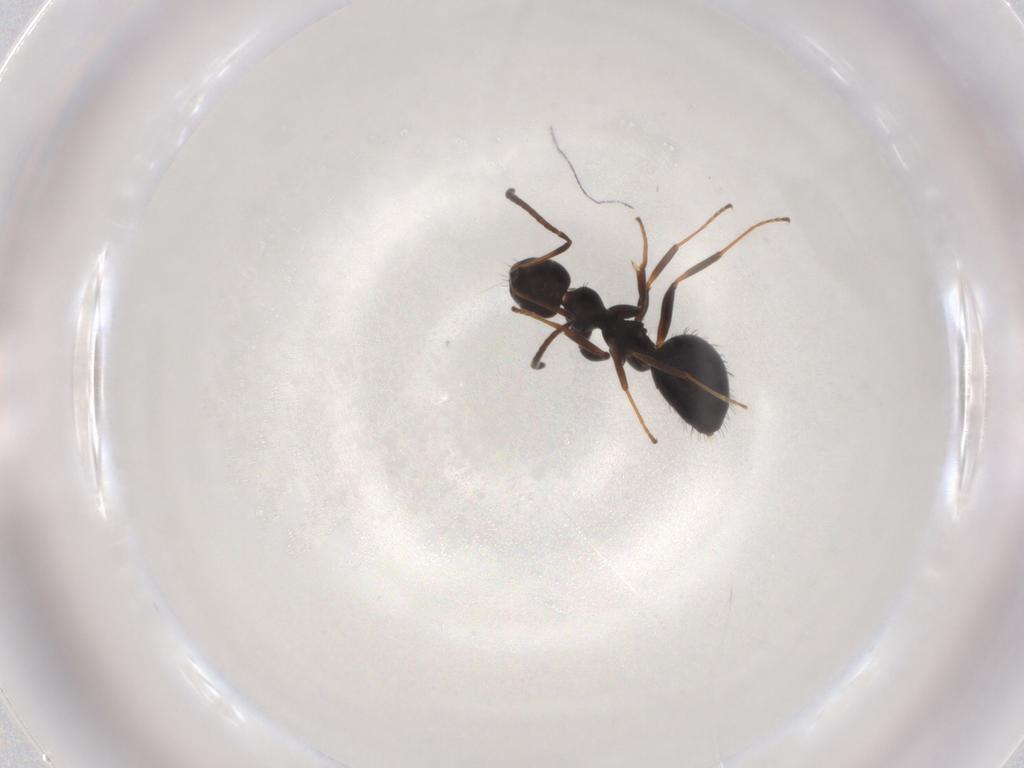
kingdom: Animalia
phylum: Arthropoda
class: Insecta
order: Hymenoptera
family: Formicidae
